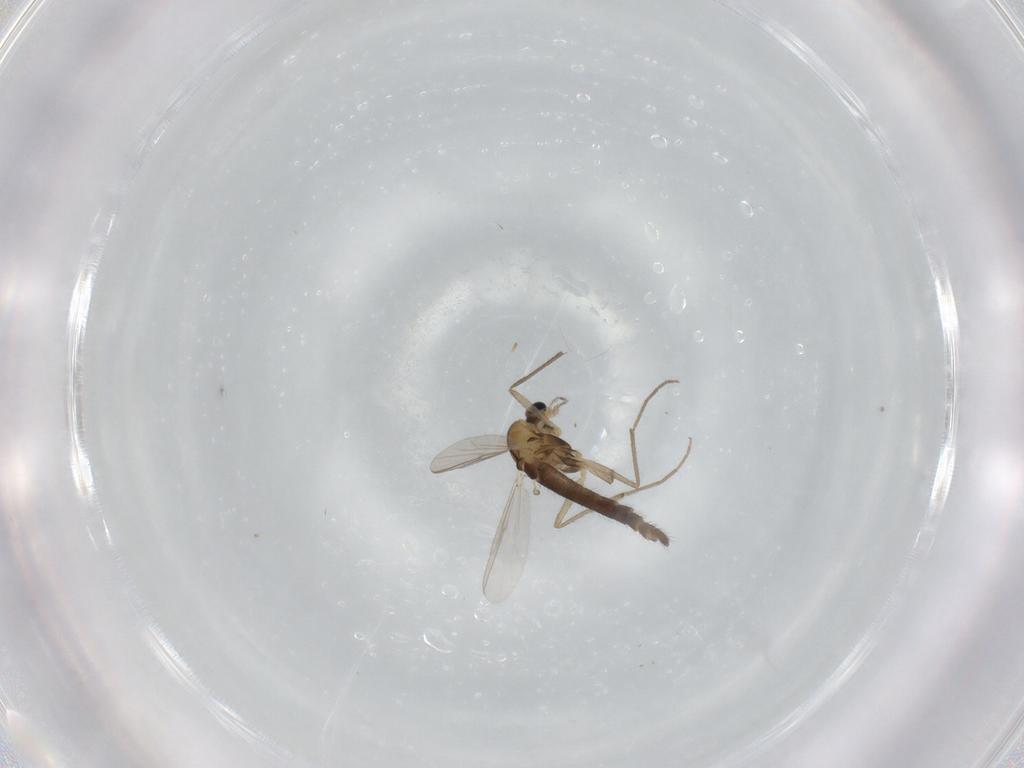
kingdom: Animalia
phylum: Arthropoda
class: Insecta
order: Diptera
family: Chironomidae
